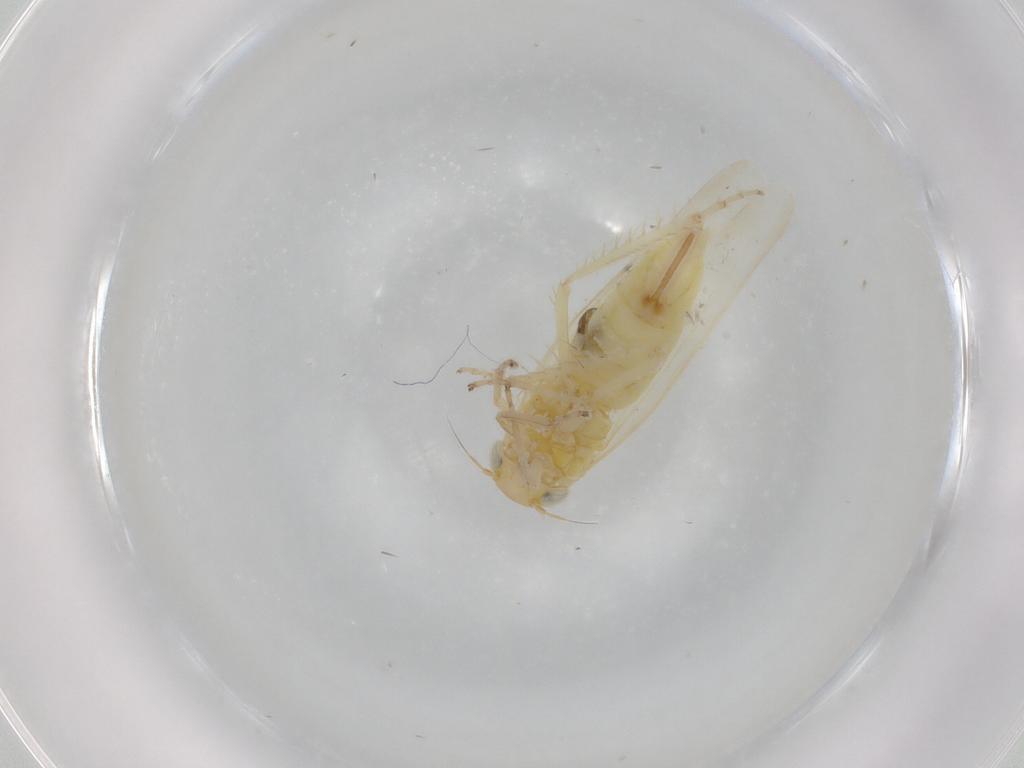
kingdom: Animalia
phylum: Arthropoda
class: Insecta
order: Hemiptera
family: Cicadellidae
